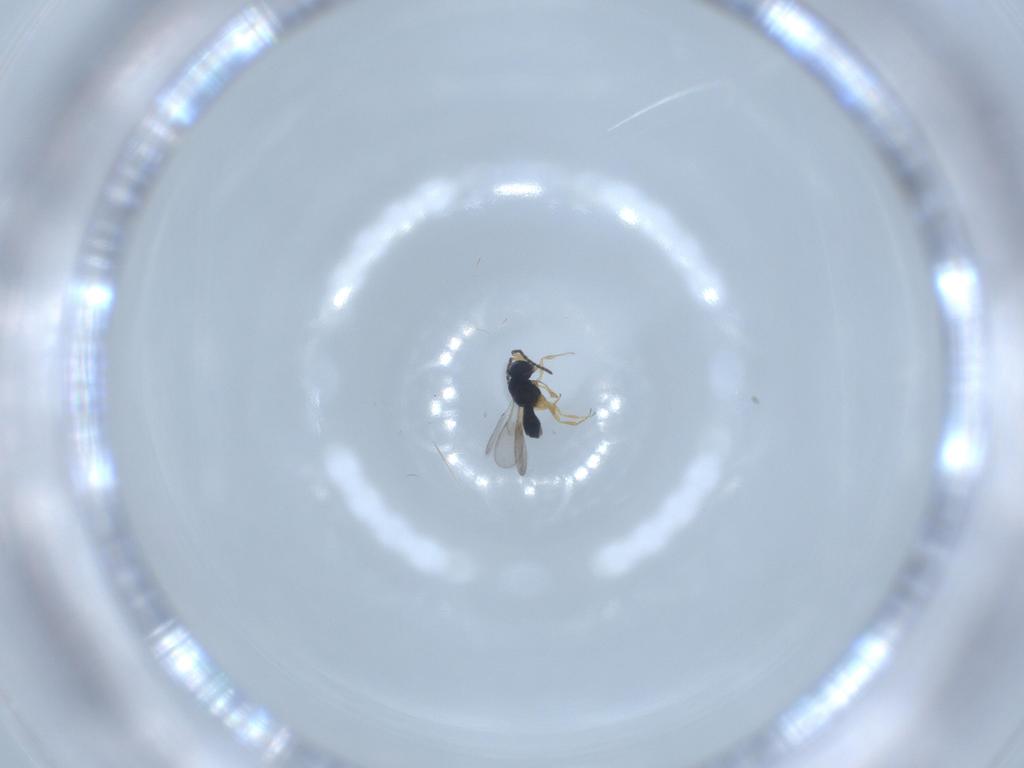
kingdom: Animalia
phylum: Arthropoda
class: Insecta
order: Hymenoptera
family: Scelionidae
